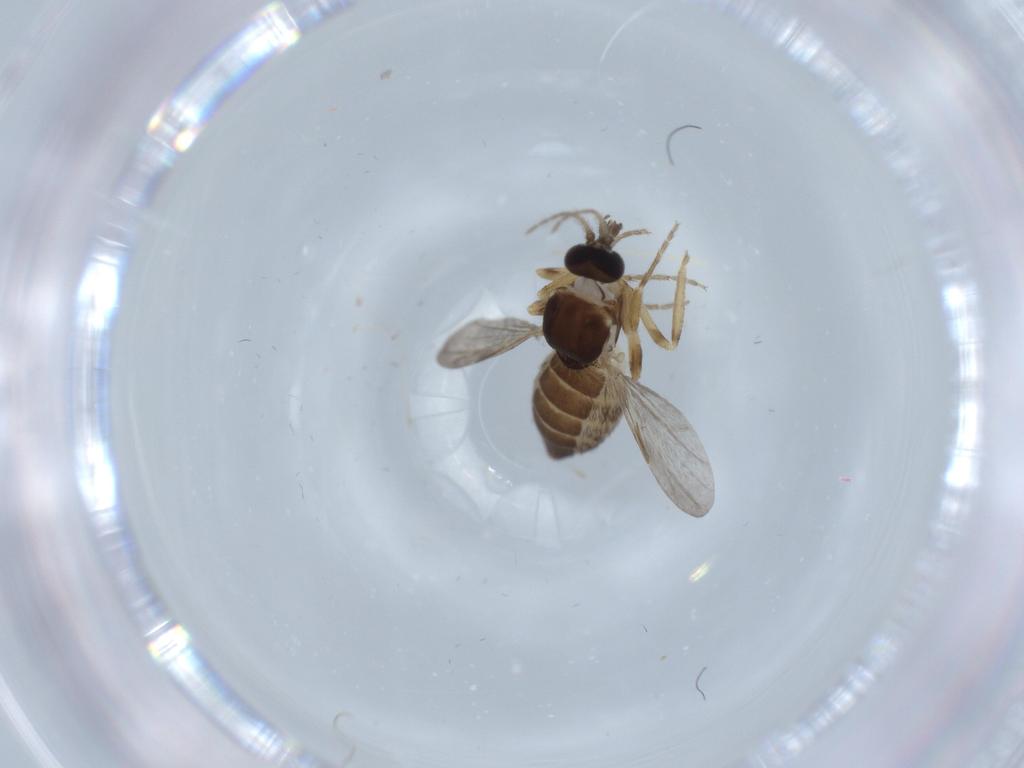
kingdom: Animalia
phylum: Arthropoda
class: Insecta
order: Diptera
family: Ceratopogonidae
